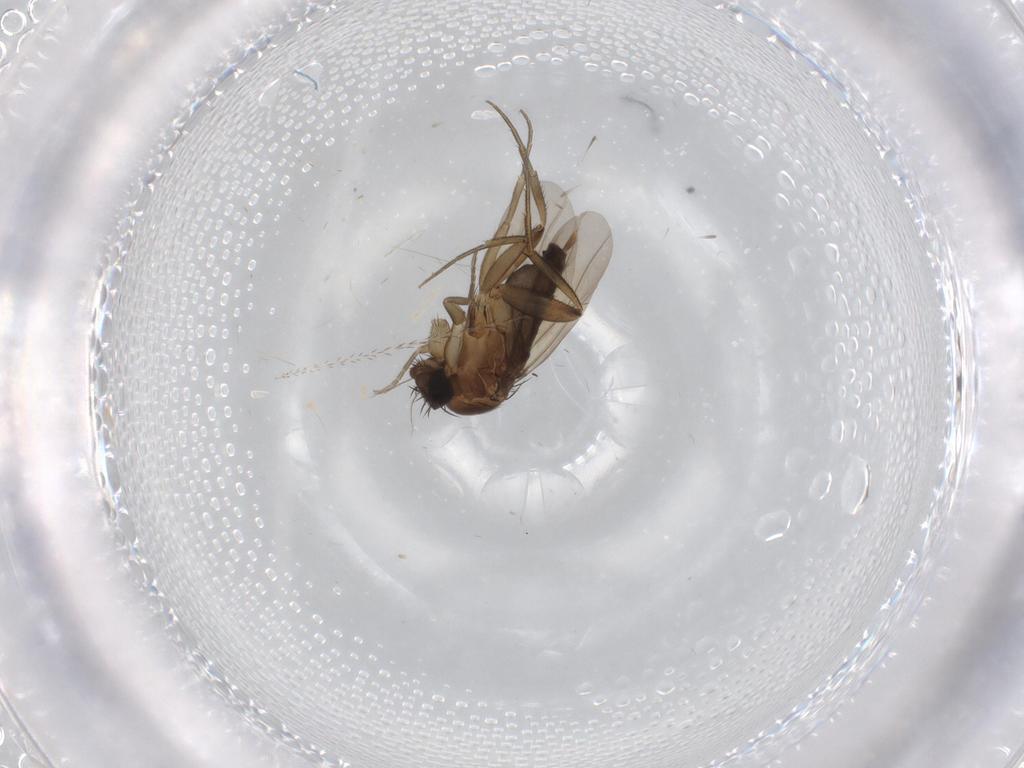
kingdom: Animalia
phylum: Arthropoda
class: Insecta
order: Diptera
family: Phoridae
